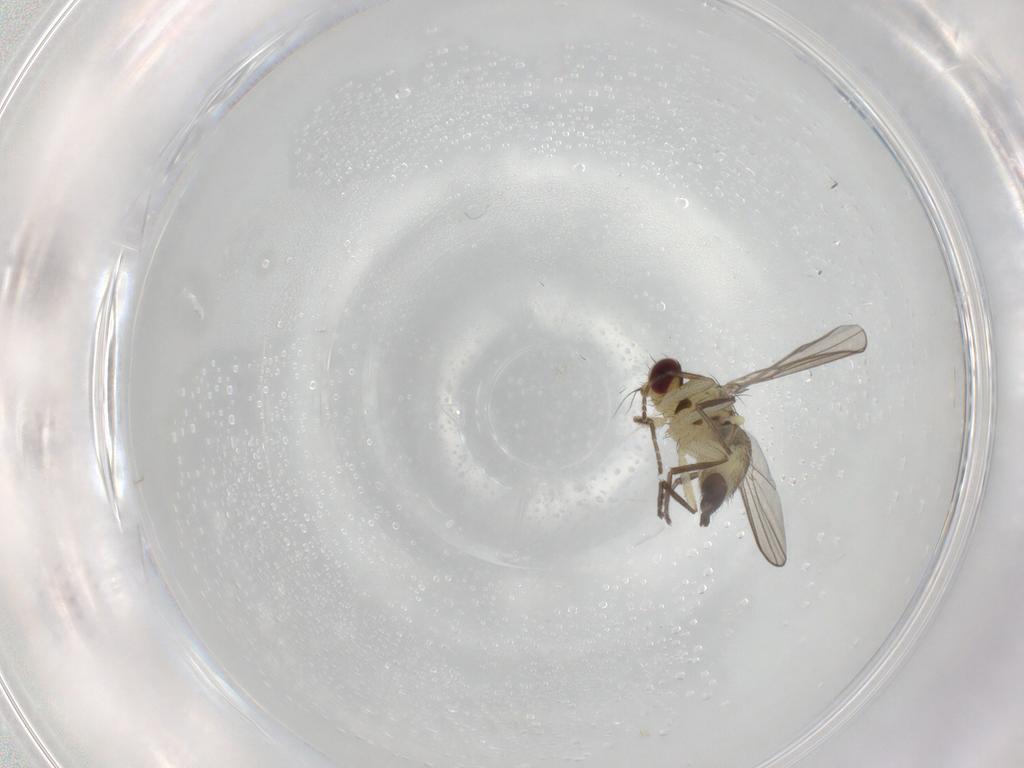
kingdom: Animalia
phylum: Arthropoda
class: Insecta
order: Diptera
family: Agromyzidae
